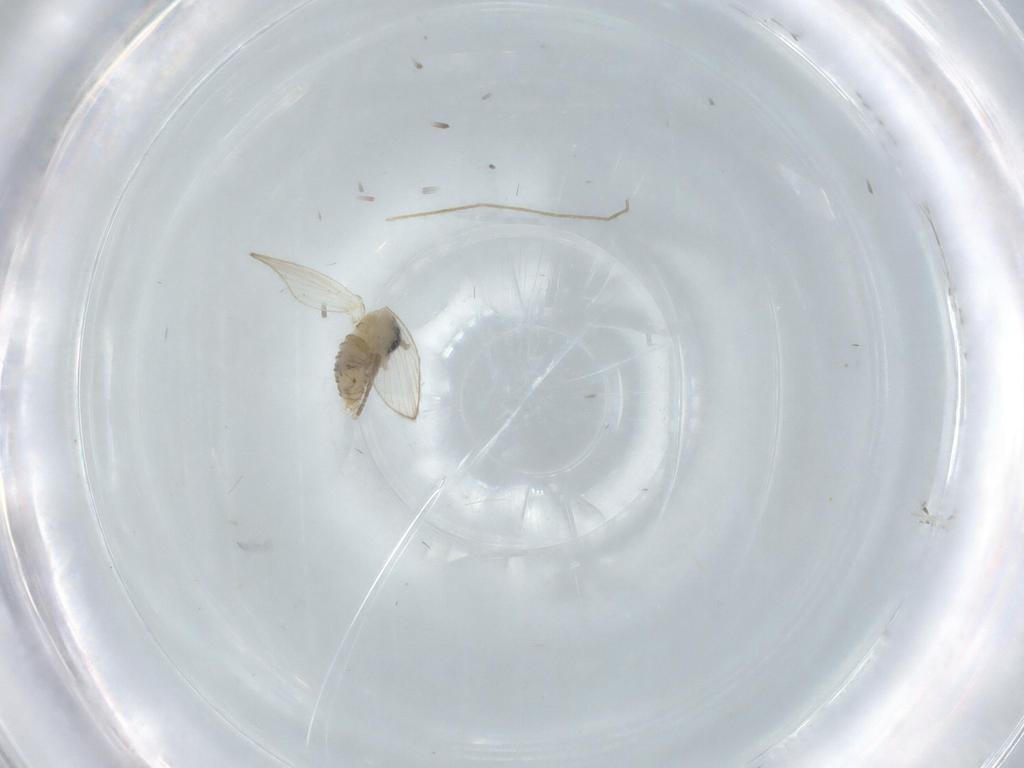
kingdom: Animalia
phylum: Arthropoda
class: Insecta
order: Diptera
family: Psychodidae
